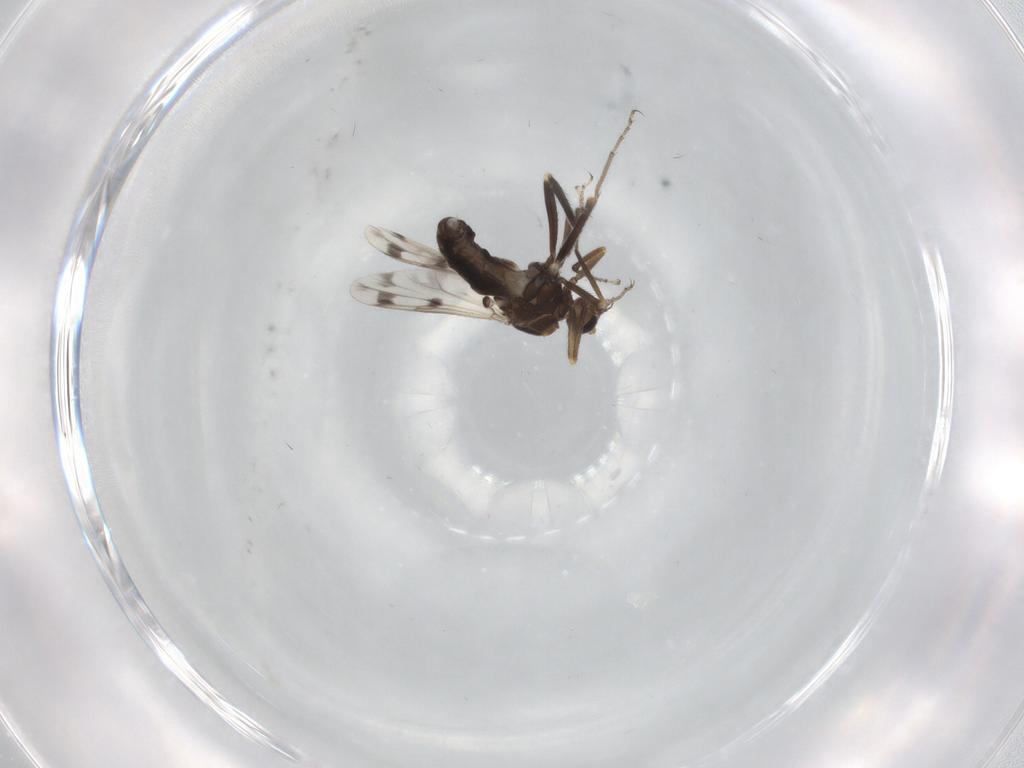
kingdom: Animalia
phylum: Arthropoda
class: Insecta
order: Diptera
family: Ceratopogonidae
